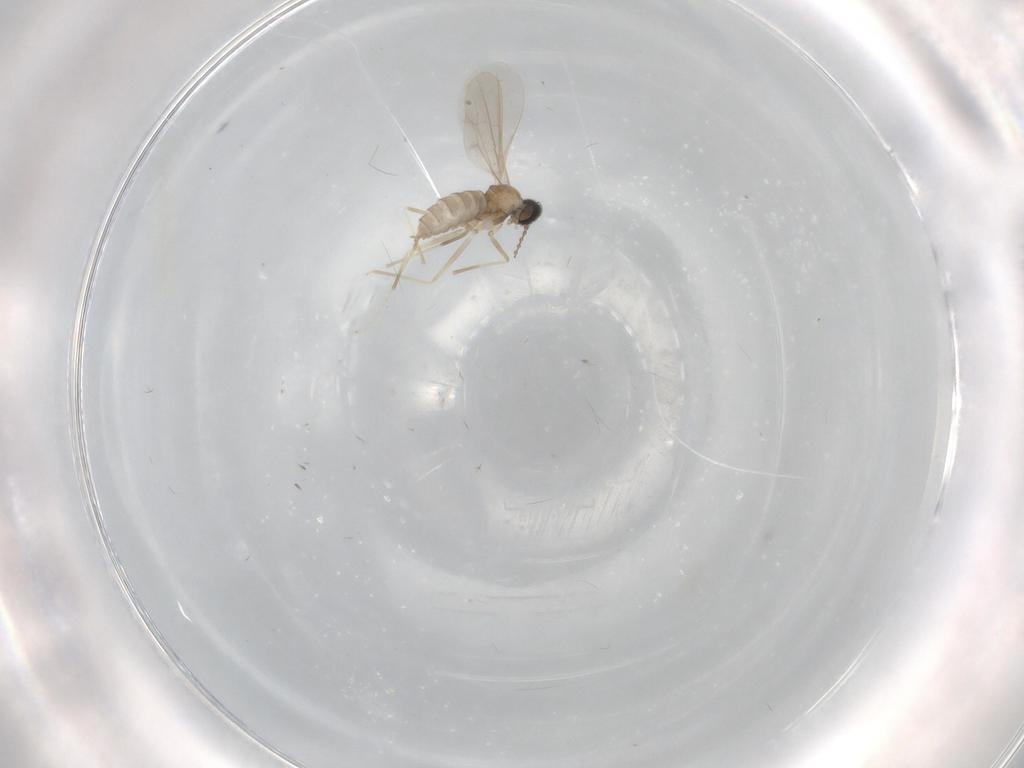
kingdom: Animalia
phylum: Arthropoda
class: Insecta
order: Diptera
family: Cecidomyiidae
